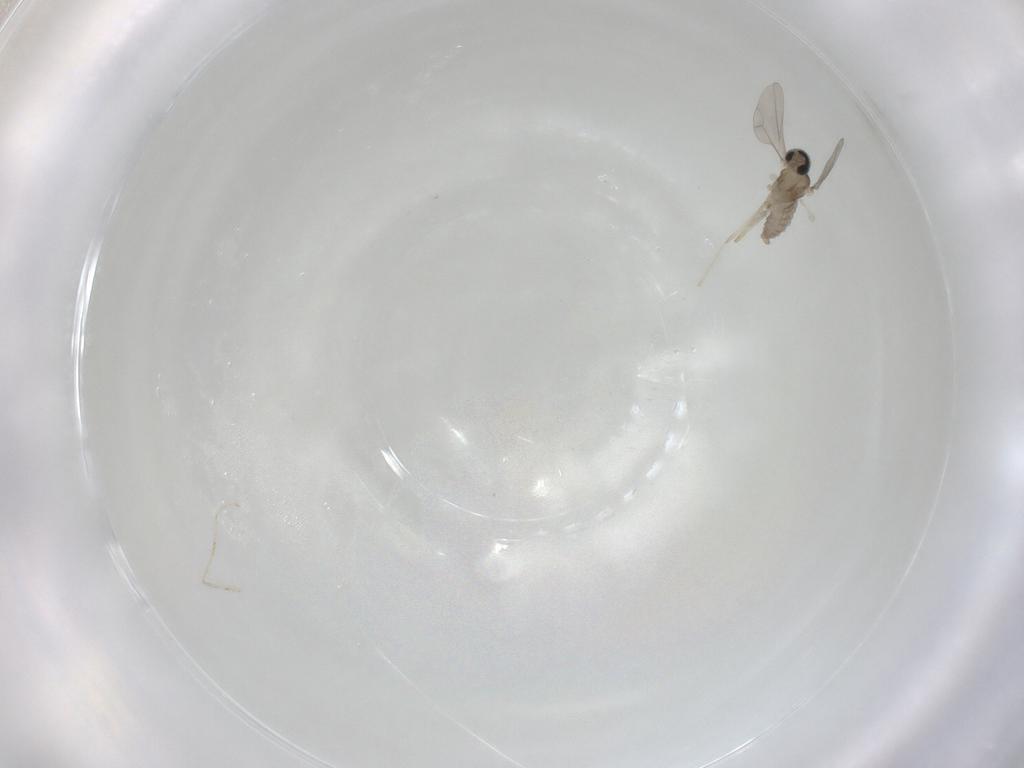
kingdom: Animalia
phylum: Arthropoda
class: Insecta
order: Diptera
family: Cecidomyiidae
